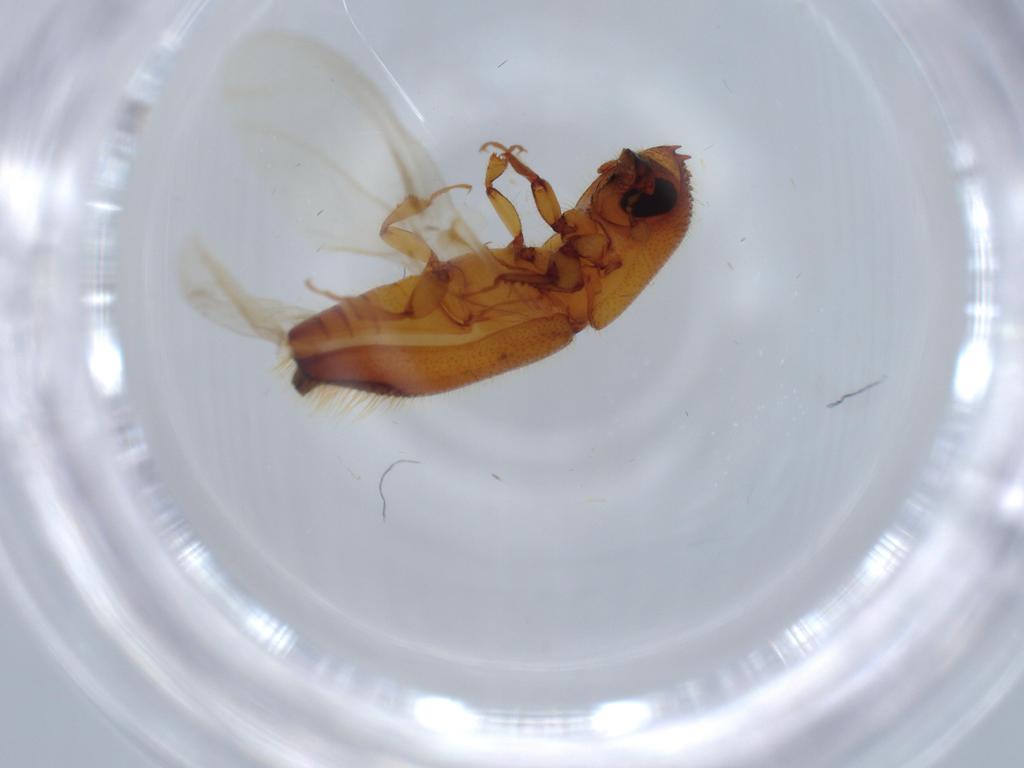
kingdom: Animalia
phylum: Arthropoda
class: Insecta
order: Coleoptera
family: Curculionidae
